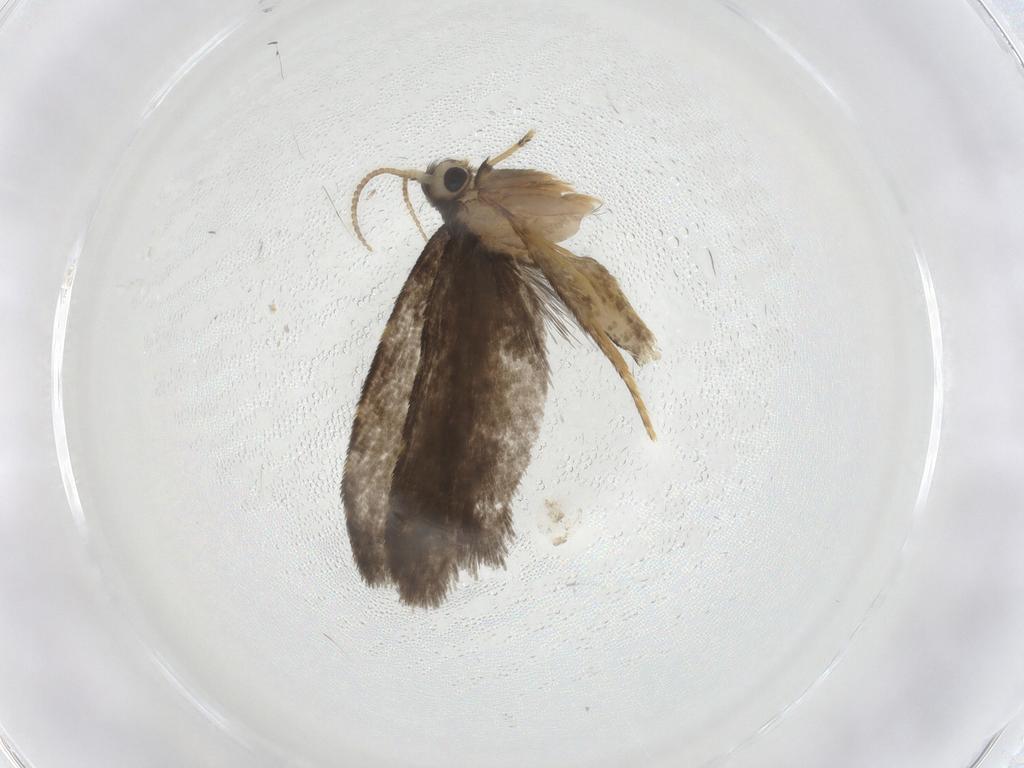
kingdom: Animalia
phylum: Arthropoda
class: Insecta
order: Lepidoptera
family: Psychidae
